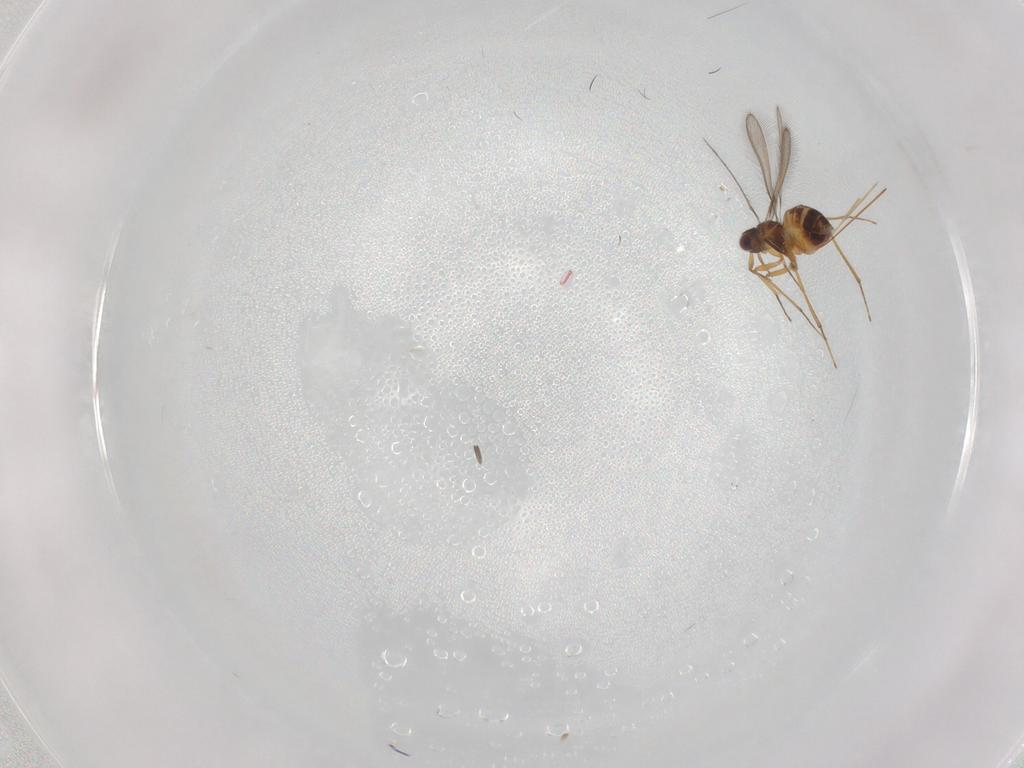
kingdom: Animalia
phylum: Arthropoda
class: Insecta
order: Hymenoptera
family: Mymaridae
